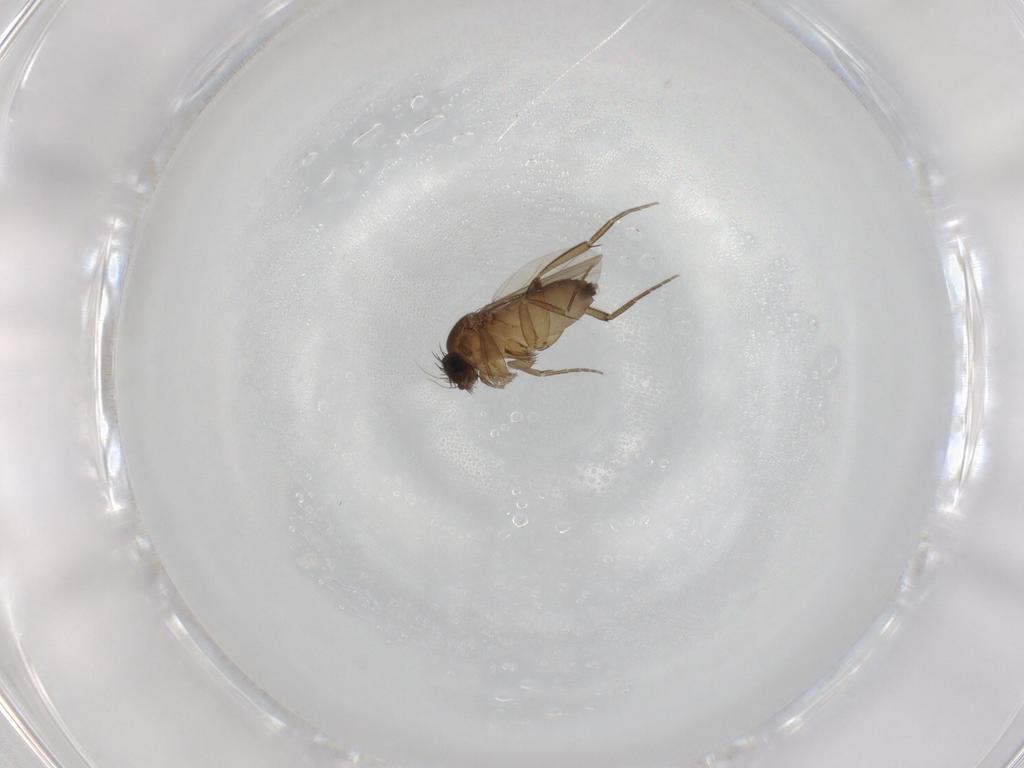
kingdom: Animalia
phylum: Arthropoda
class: Insecta
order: Diptera
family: Phoridae
